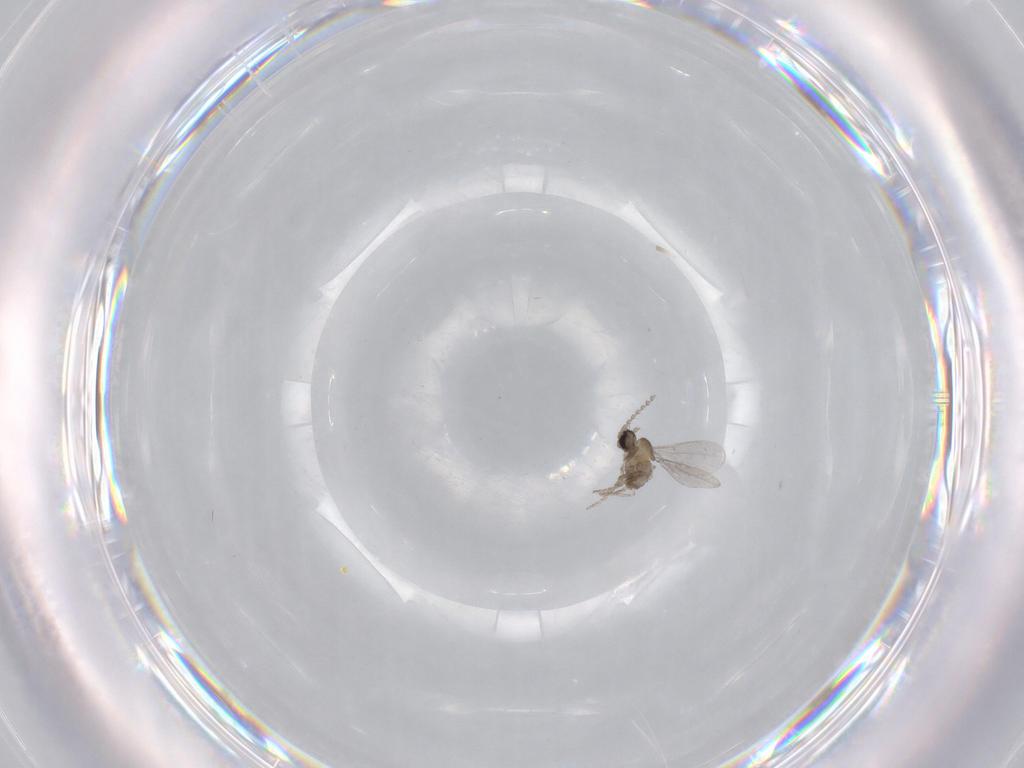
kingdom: Animalia
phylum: Arthropoda
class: Insecta
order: Diptera
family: Cecidomyiidae
